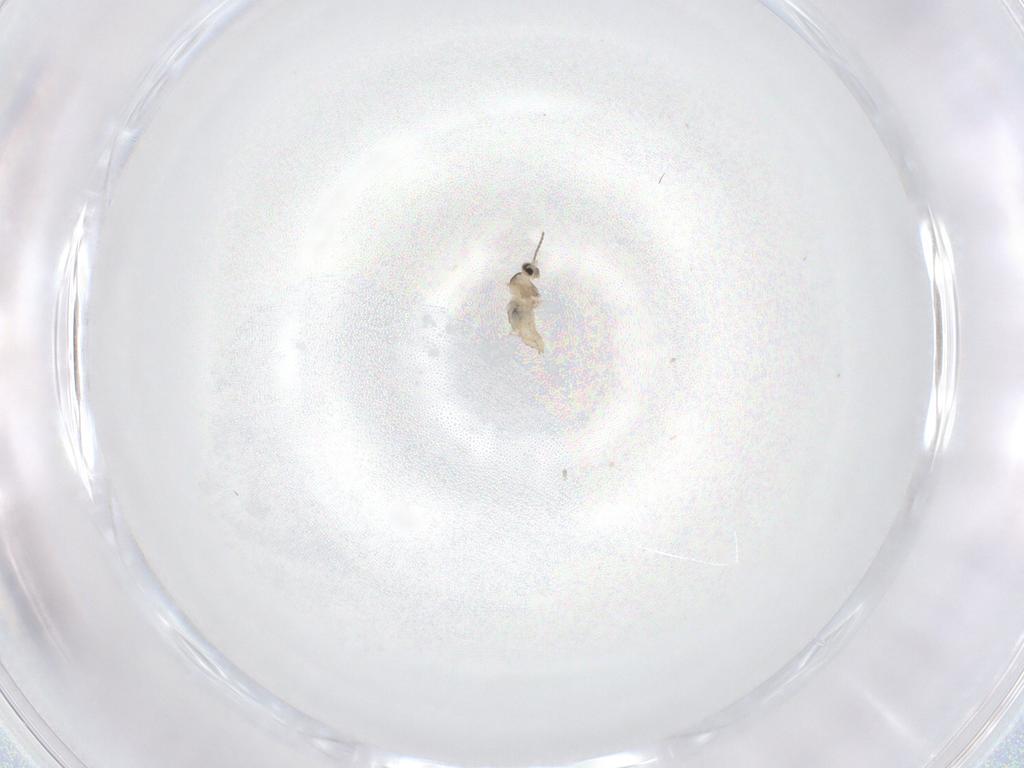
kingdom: Animalia
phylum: Arthropoda
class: Insecta
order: Diptera
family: Cecidomyiidae
